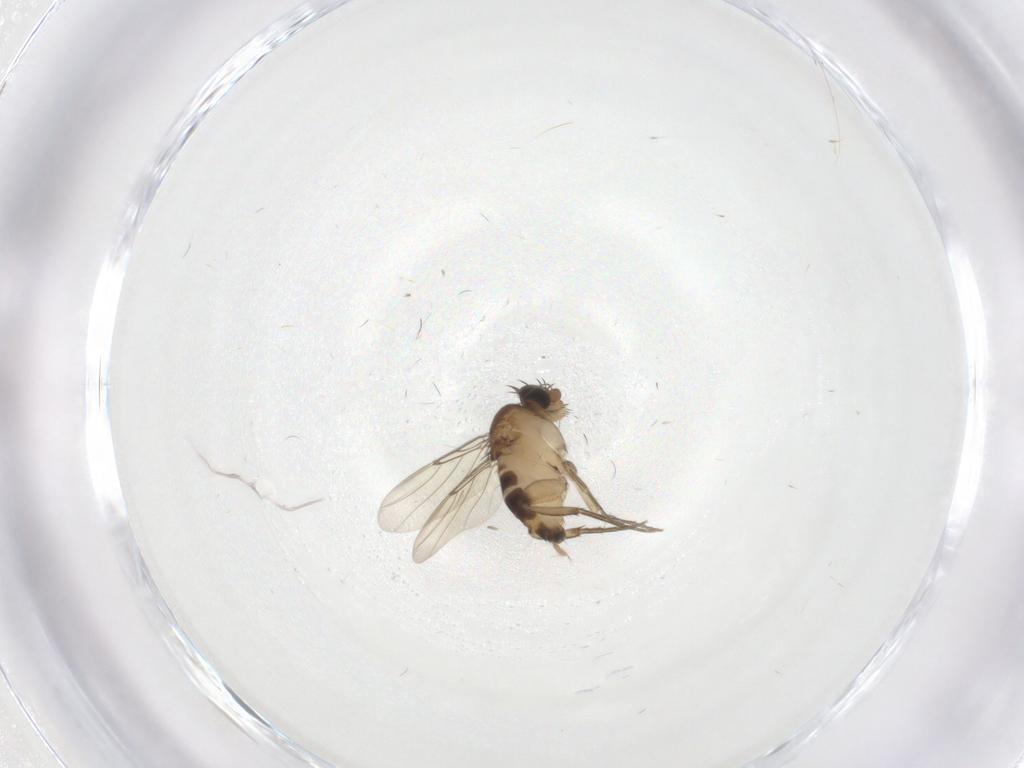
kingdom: Animalia
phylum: Arthropoda
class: Insecta
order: Diptera
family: Phoridae
